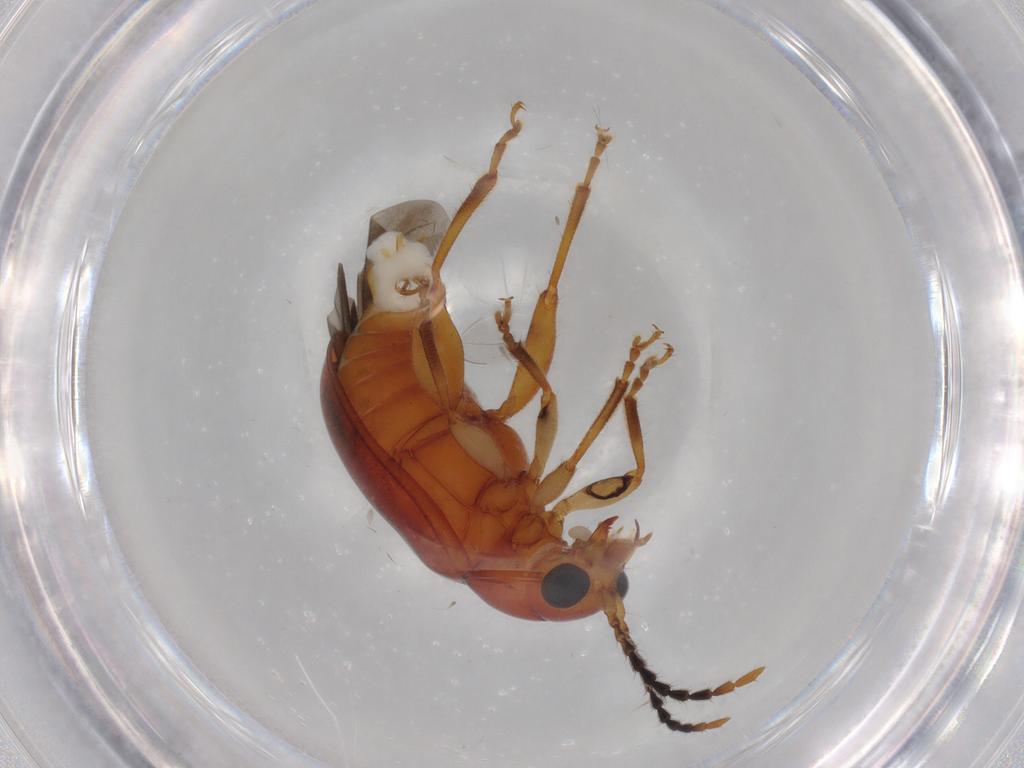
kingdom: Animalia
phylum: Arthropoda
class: Insecta
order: Coleoptera
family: Chrysomelidae
